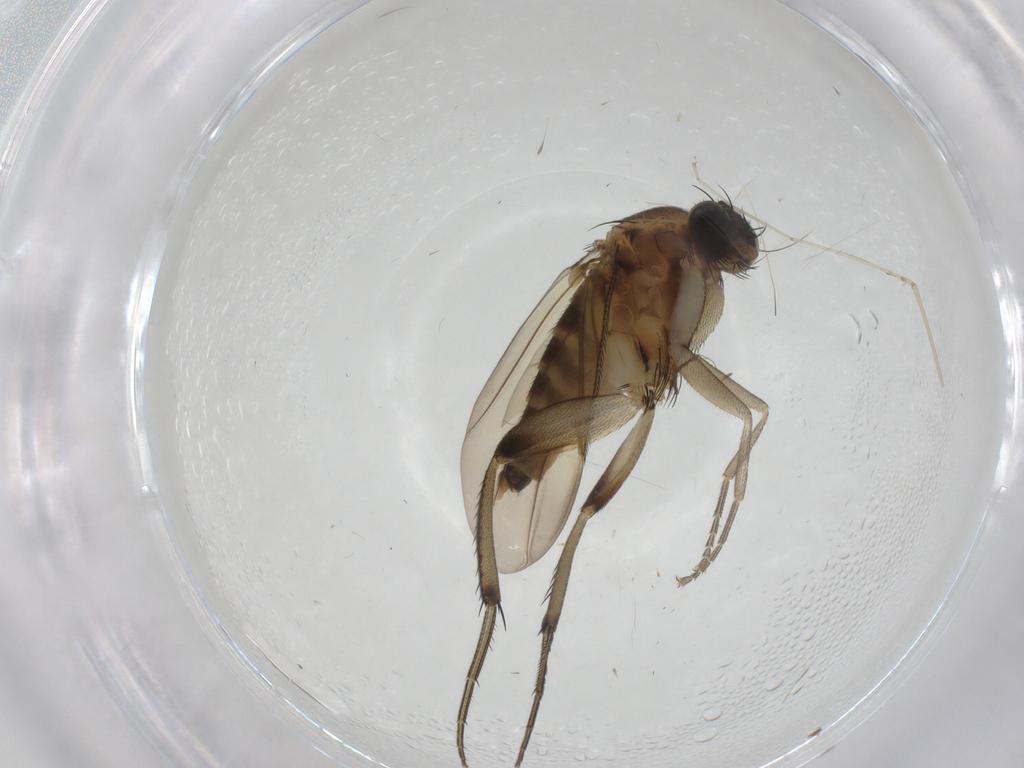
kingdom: Animalia
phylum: Arthropoda
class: Insecta
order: Diptera
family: Cecidomyiidae
